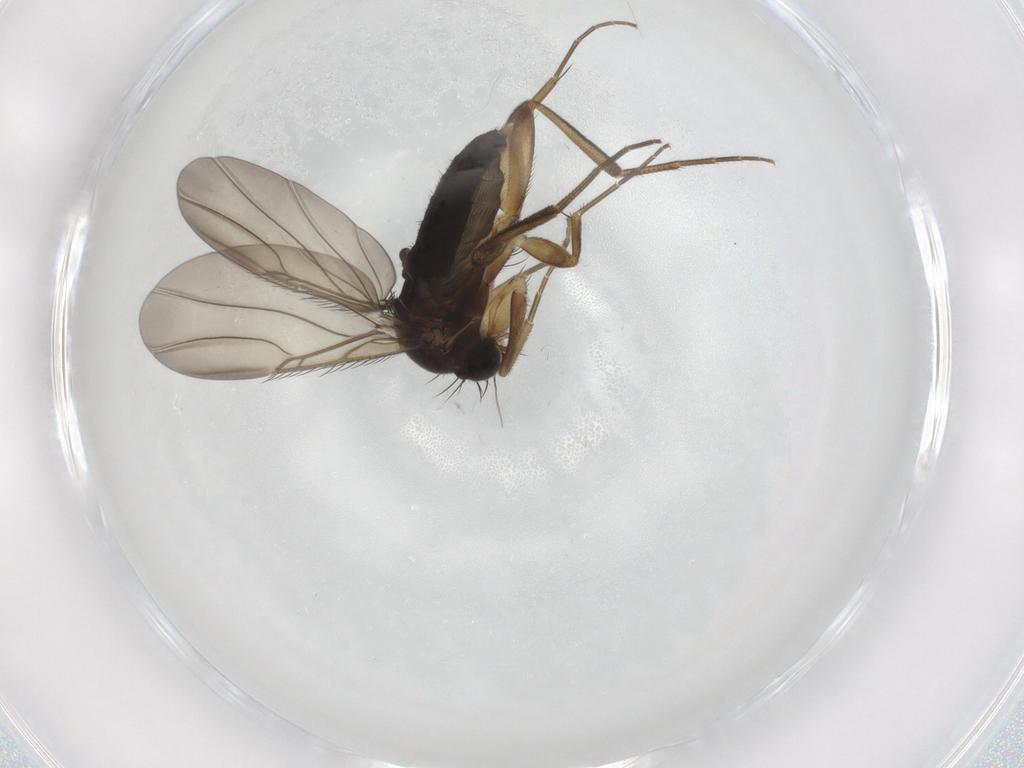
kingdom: Animalia
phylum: Arthropoda
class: Insecta
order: Diptera
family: Phoridae
